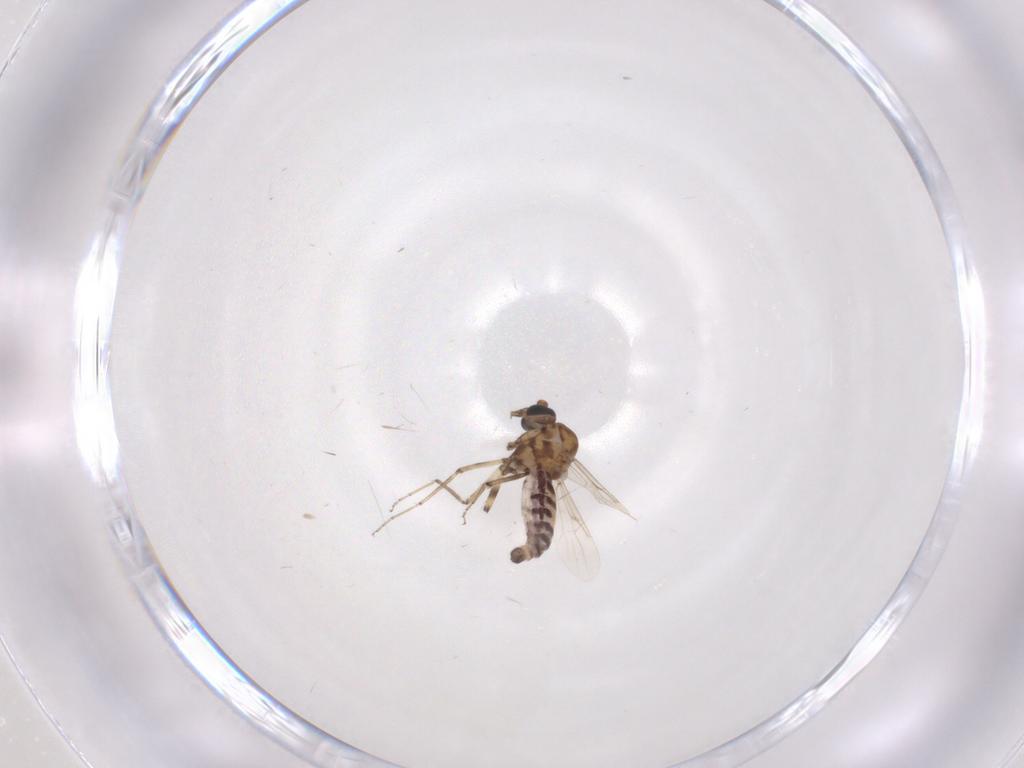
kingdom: Animalia
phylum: Arthropoda
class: Insecta
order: Diptera
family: Ceratopogonidae
